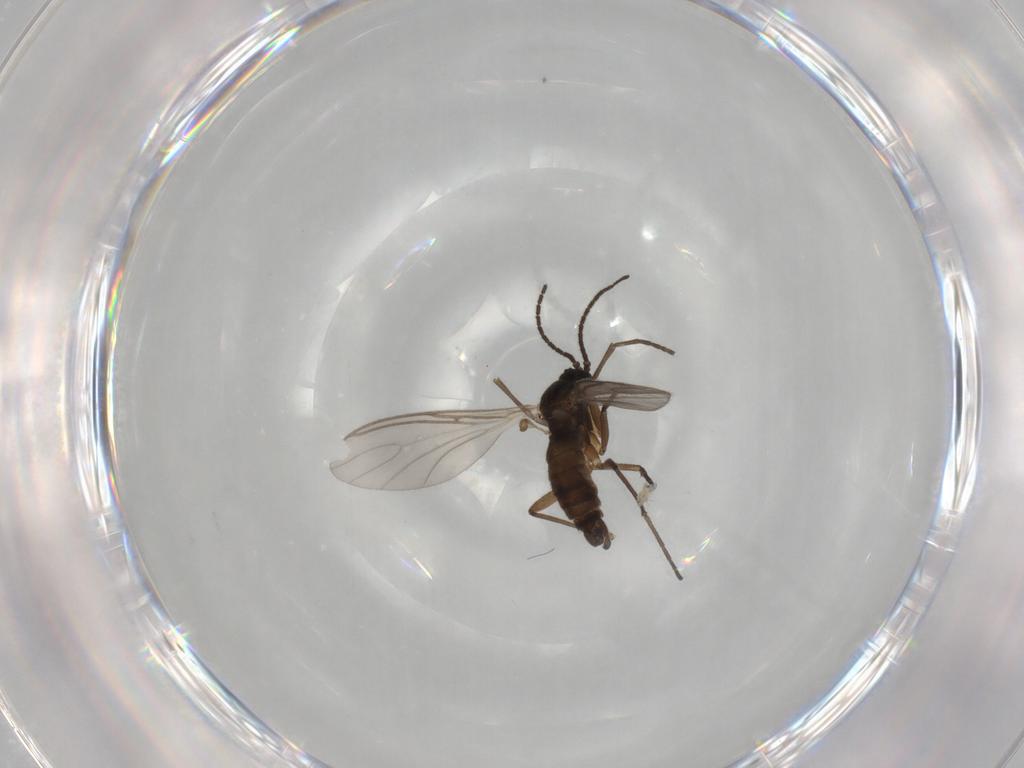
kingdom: Animalia
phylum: Arthropoda
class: Insecta
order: Diptera
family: Sciaridae
